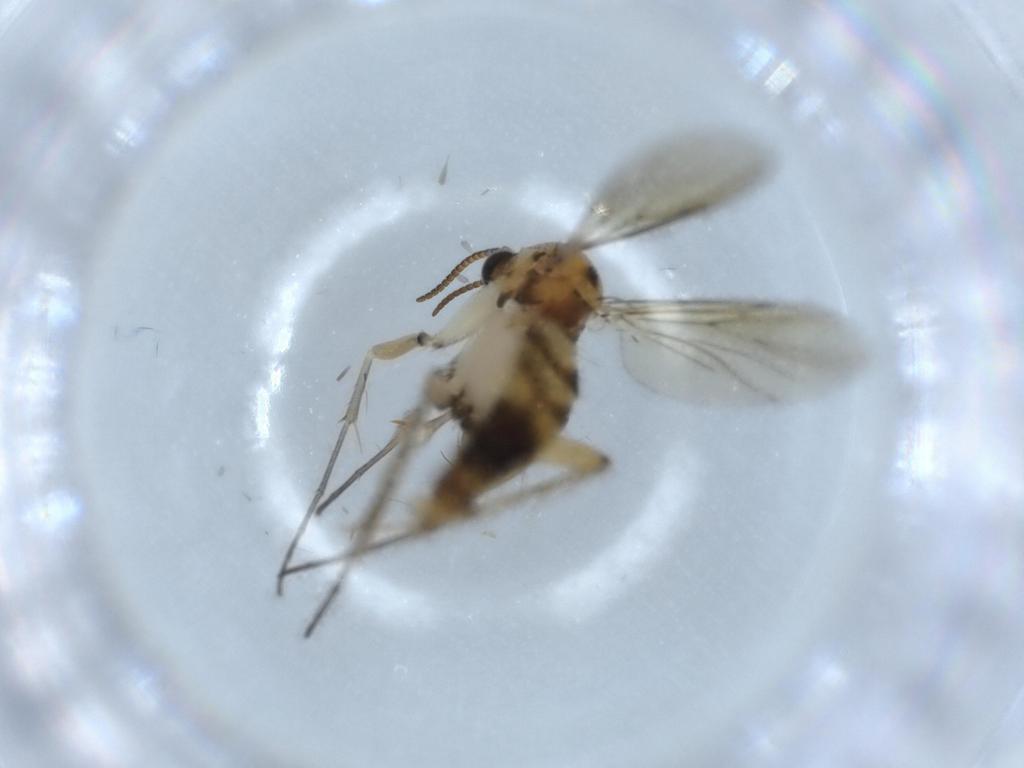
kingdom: Animalia
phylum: Arthropoda
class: Insecta
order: Diptera
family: Mycetophilidae
